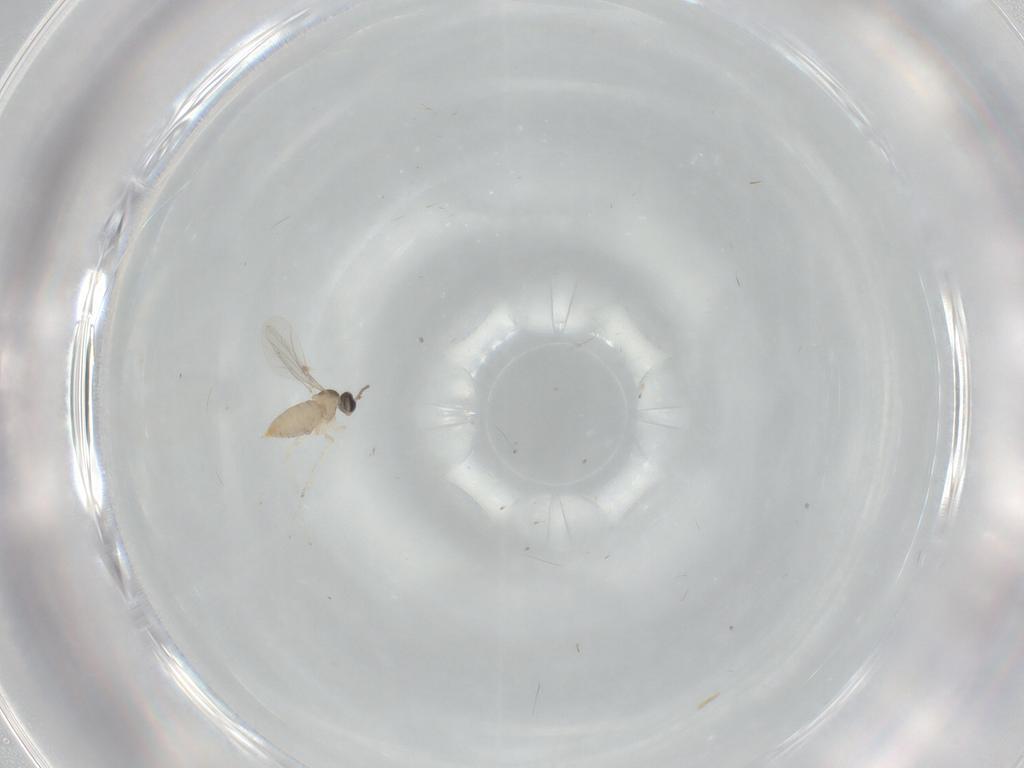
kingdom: Animalia
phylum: Arthropoda
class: Insecta
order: Diptera
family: Cecidomyiidae
